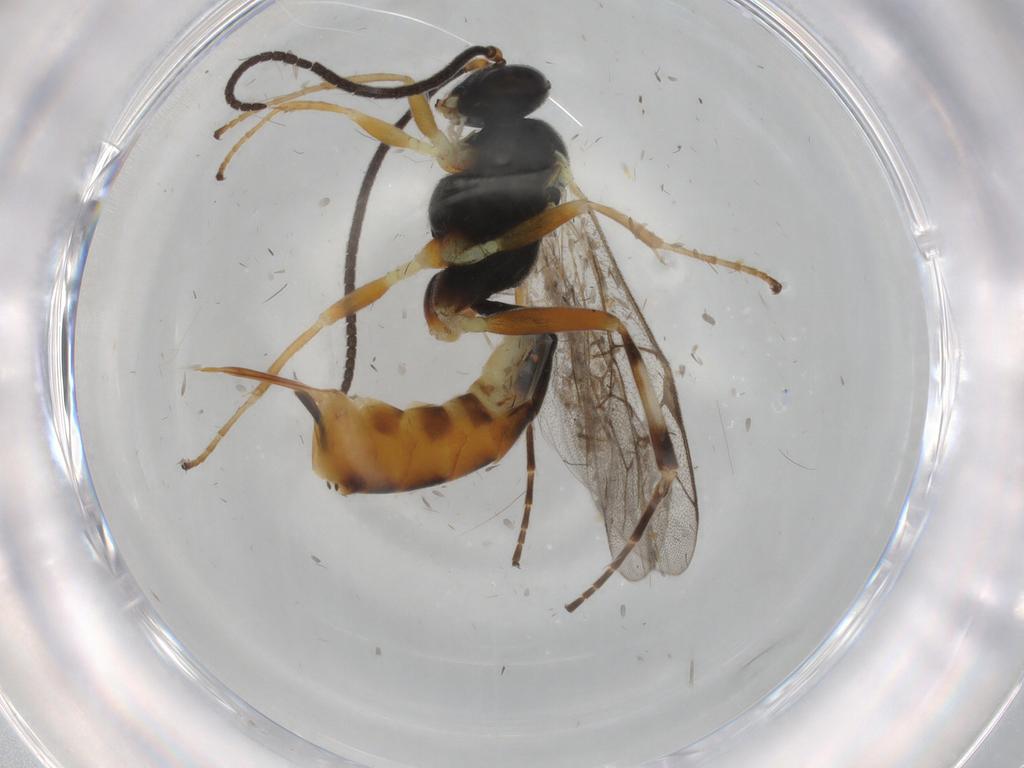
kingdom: Animalia
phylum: Arthropoda
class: Insecta
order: Hymenoptera
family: Ichneumonidae
